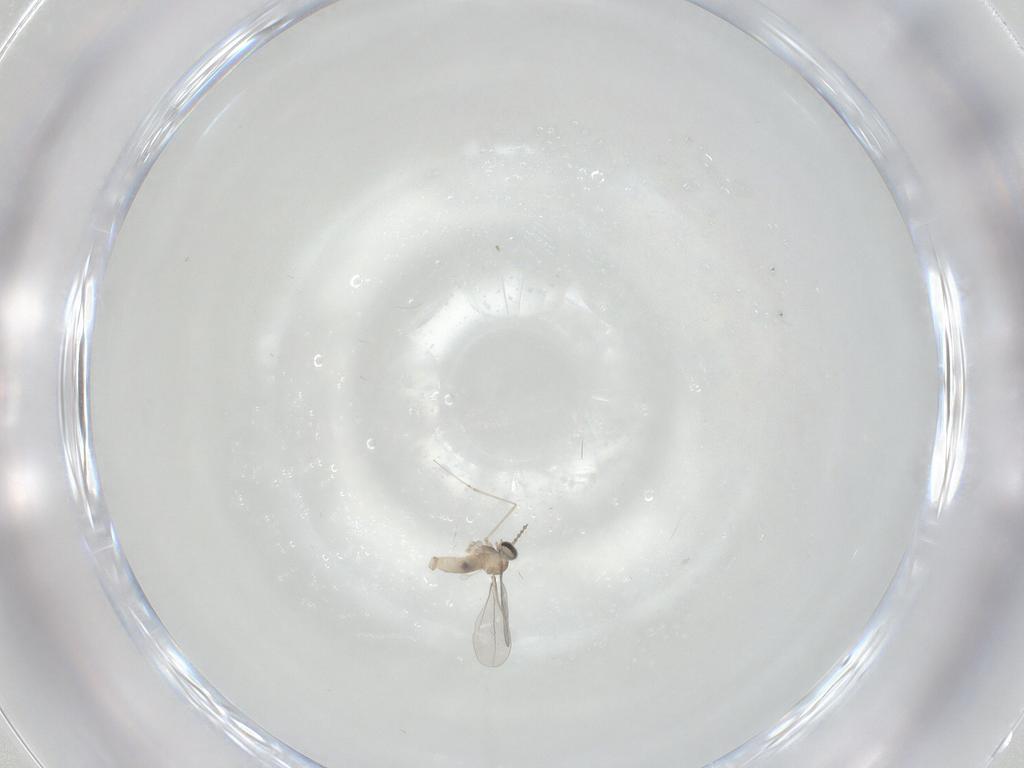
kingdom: Animalia
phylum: Arthropoda
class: Insecta
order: Diptera
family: Cecidomyiidae
